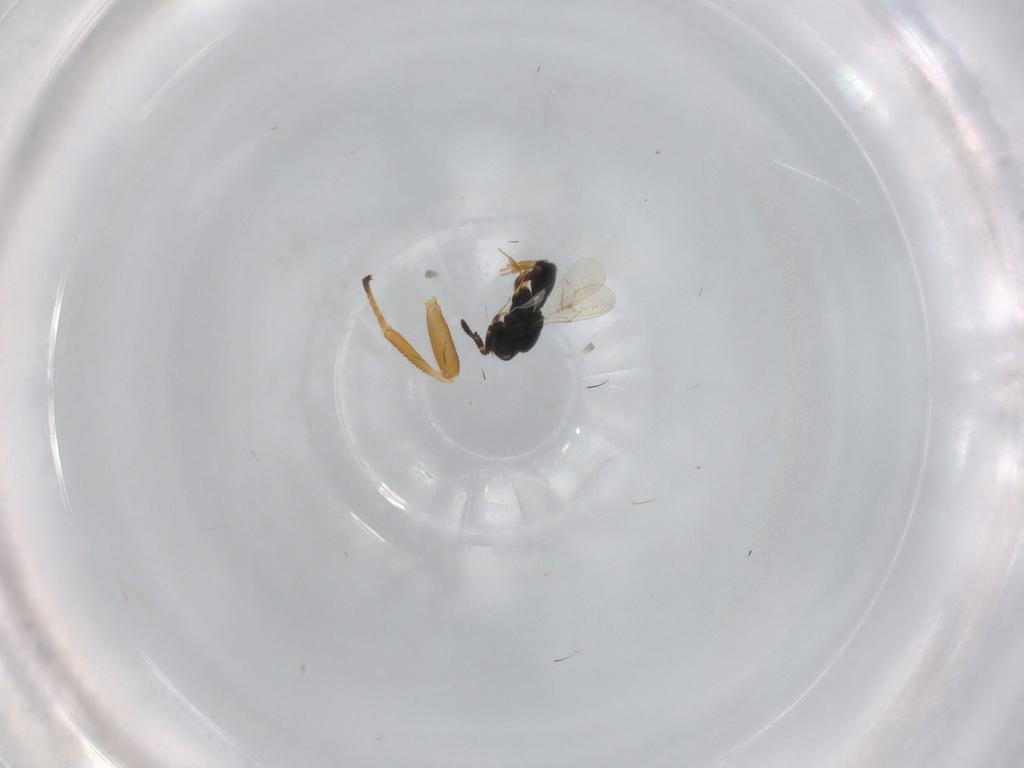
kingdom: Animalia
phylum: Arthropoda
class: Insecta
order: Hymenoptera
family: Scelionidae
